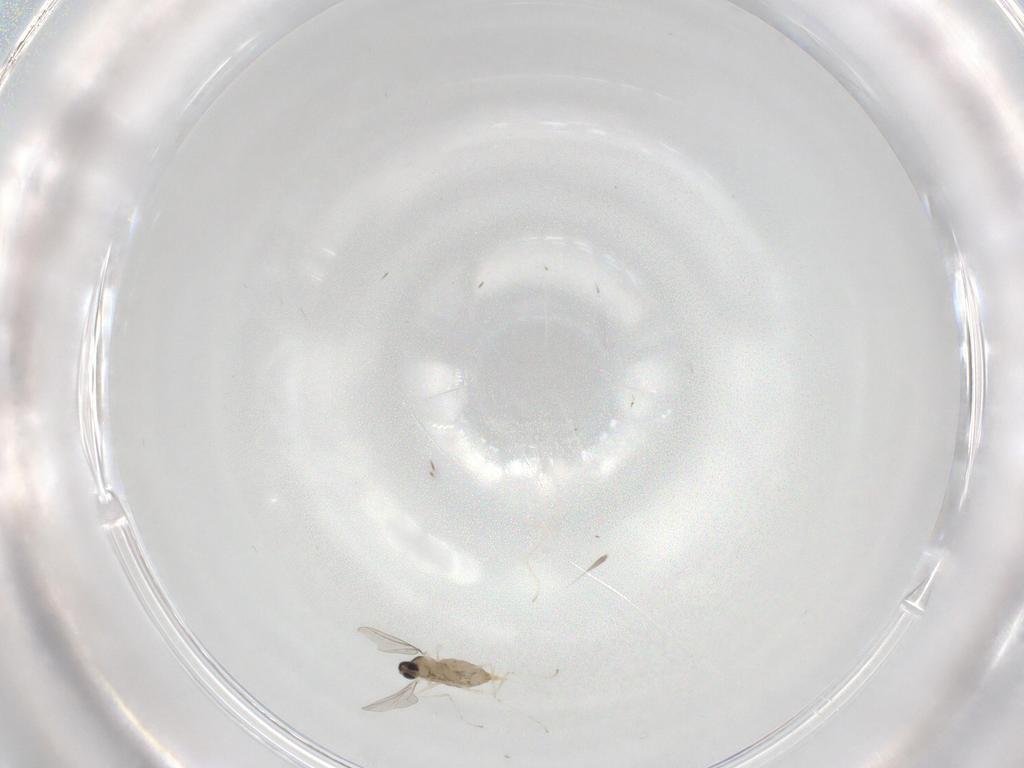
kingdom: Animalia
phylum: Arthropoda
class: Insecta
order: Diptera
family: Cecidomyiidae
